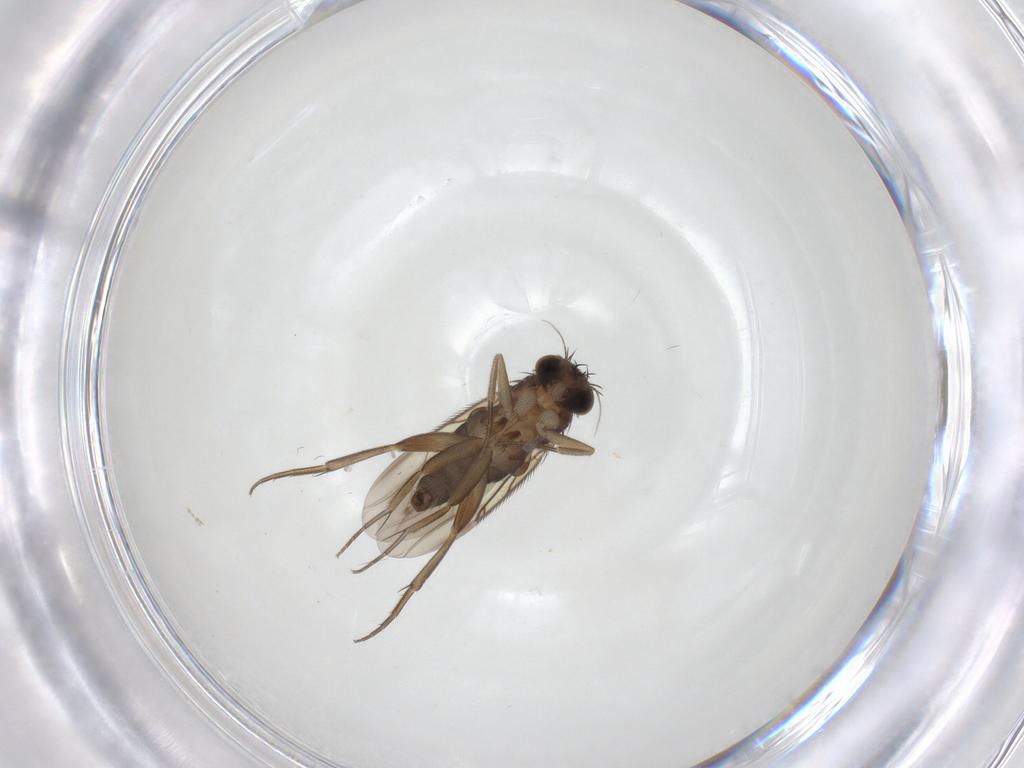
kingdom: Animalia
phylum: Arthropoda
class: Insecta
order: Diptera
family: Phoridae
